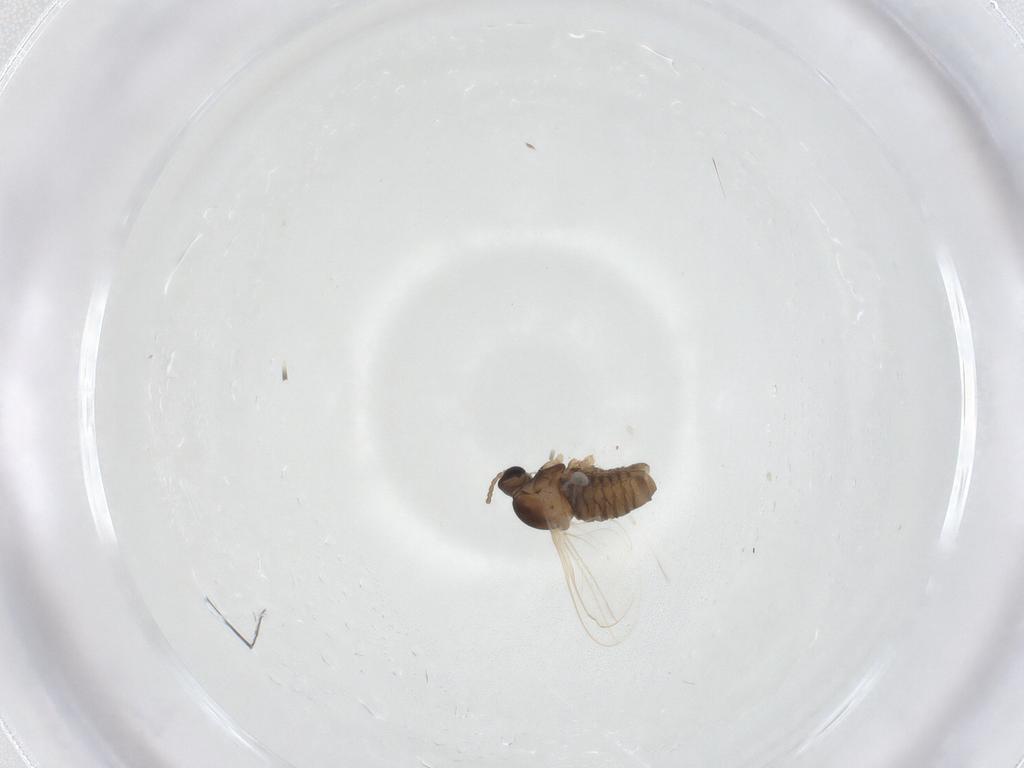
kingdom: Animalia
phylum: Arthropoda
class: Insecta
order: Diptera
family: Cecidomyiidae
